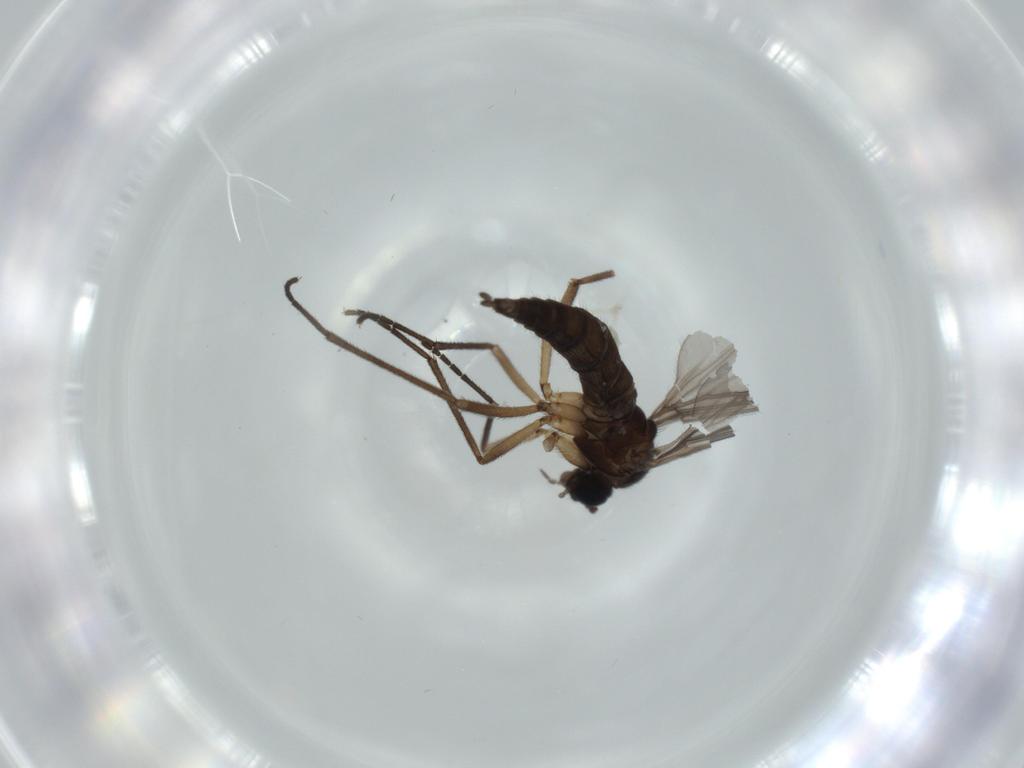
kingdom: Animalia
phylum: Arthropoda
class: Insecta
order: Diptera
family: Sciaridae
